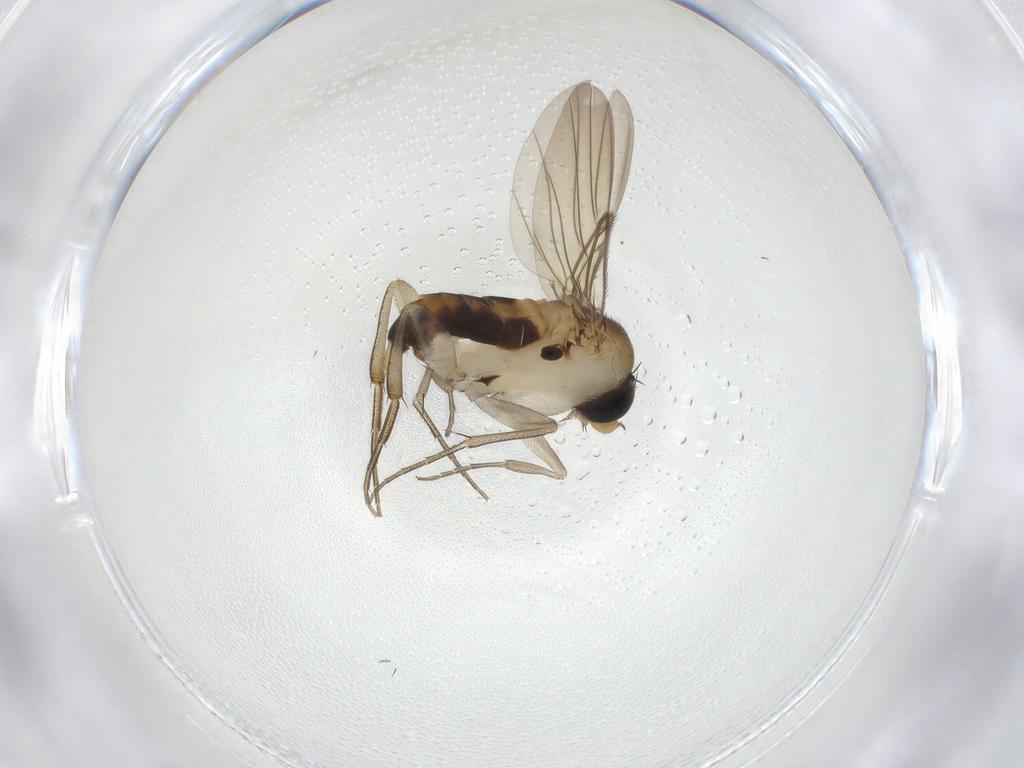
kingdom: Animalia
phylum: Arthropoda
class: Insecta
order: Diptera
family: Phoridae
